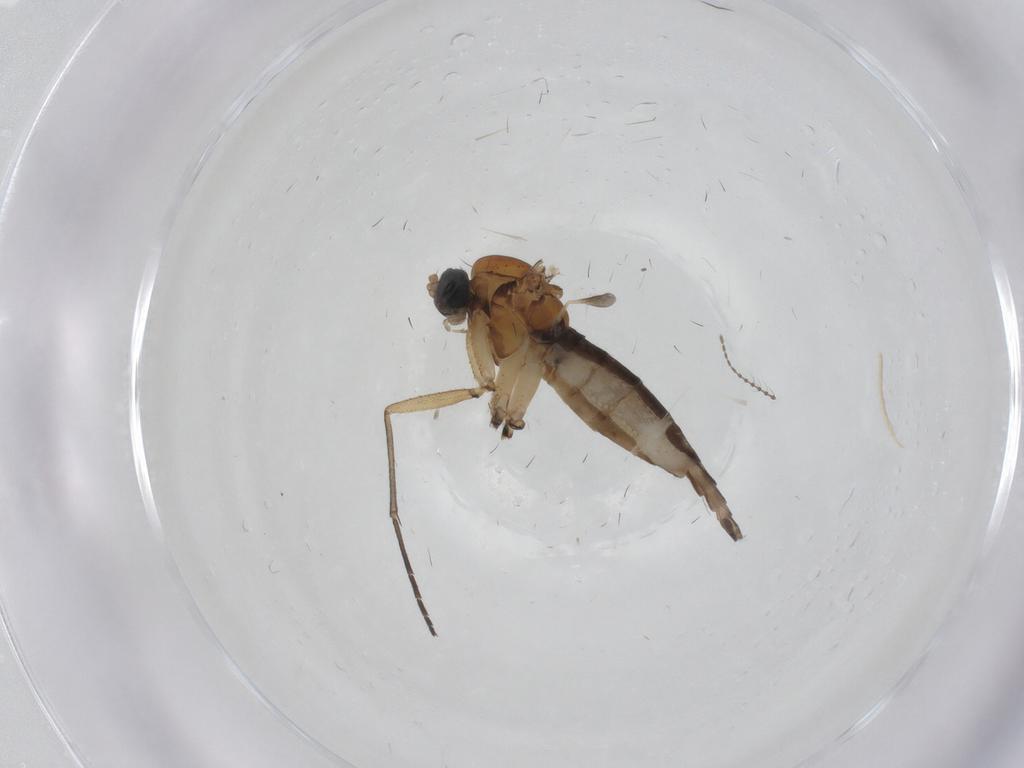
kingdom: Animalia
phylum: Arthropoda
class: Insecta
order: Diptera
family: Sciaridae
